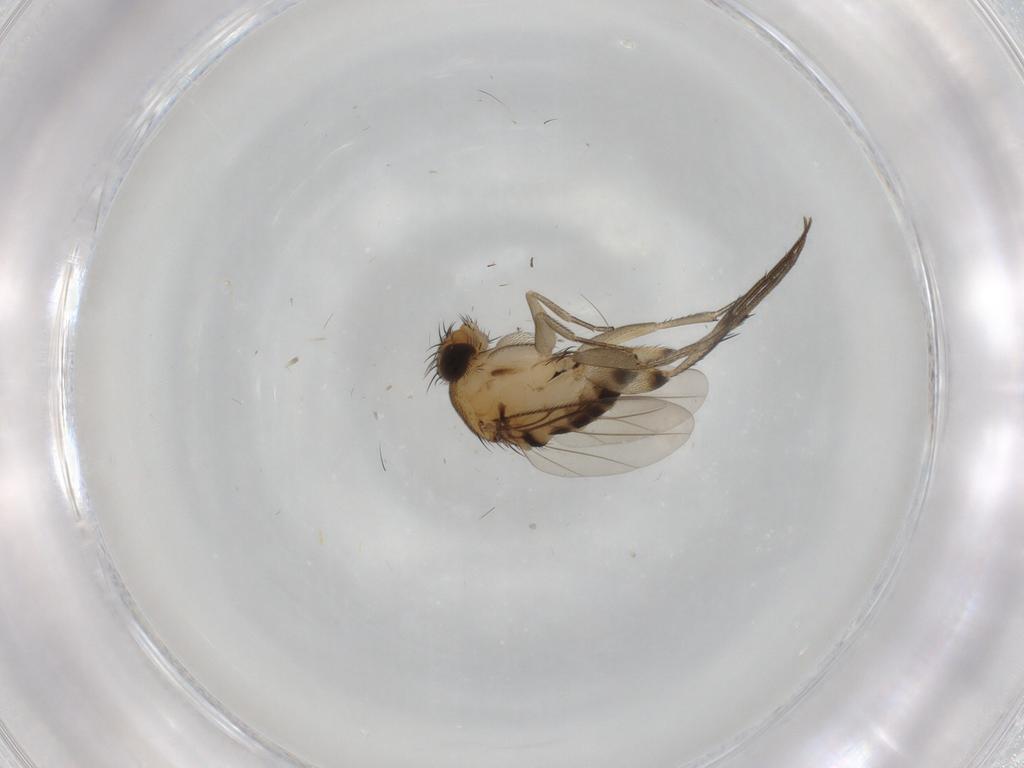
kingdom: Animalia
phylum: Arthropoda
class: Insecta
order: Diptera
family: Phoridae
